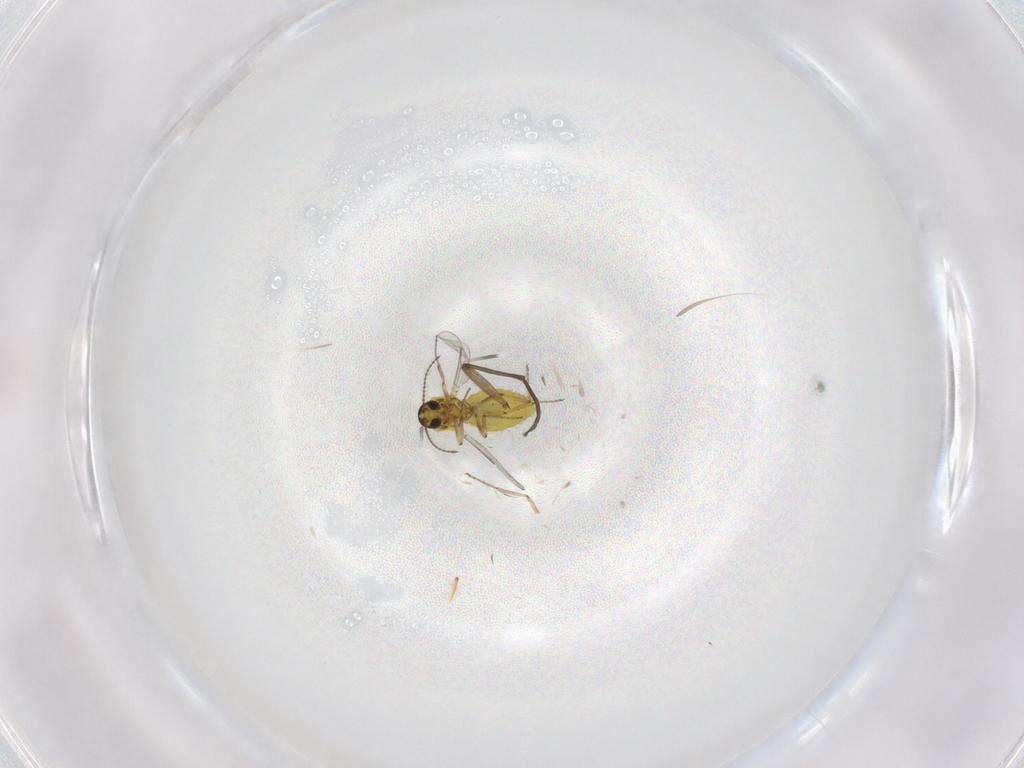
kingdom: Animalia
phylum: Arthropoda
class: Insecta
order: Diptera
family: Ceratopogonidae
